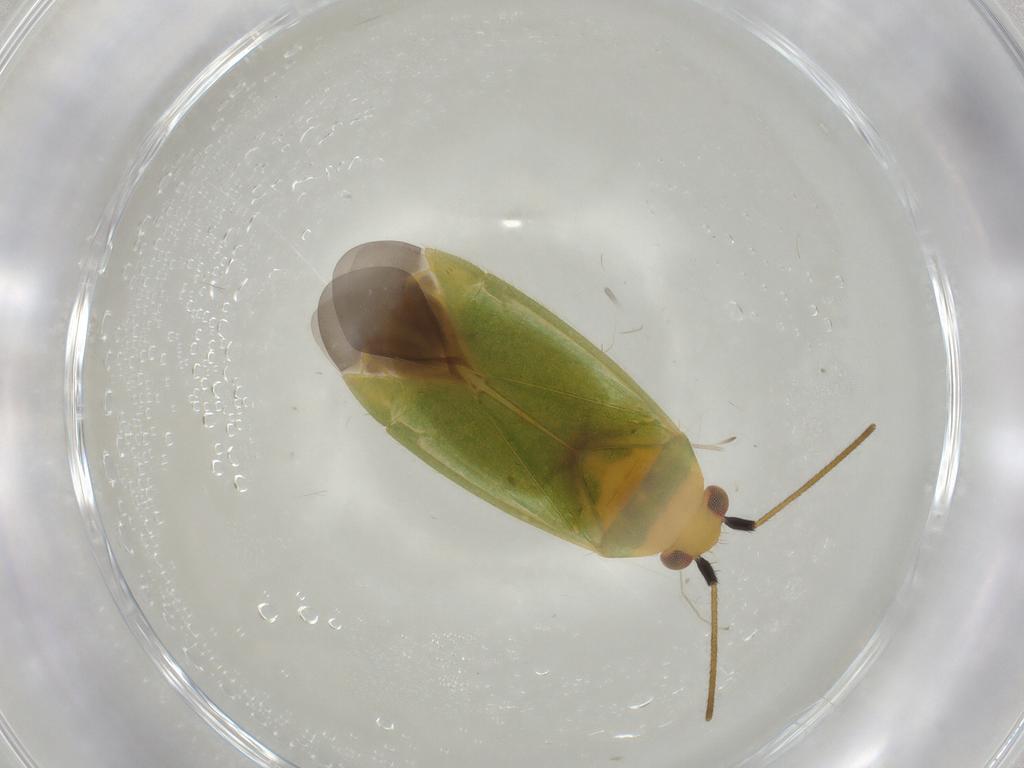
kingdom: Animalia
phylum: Arthropoda
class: Insecta
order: Hemiptera
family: Miridae
